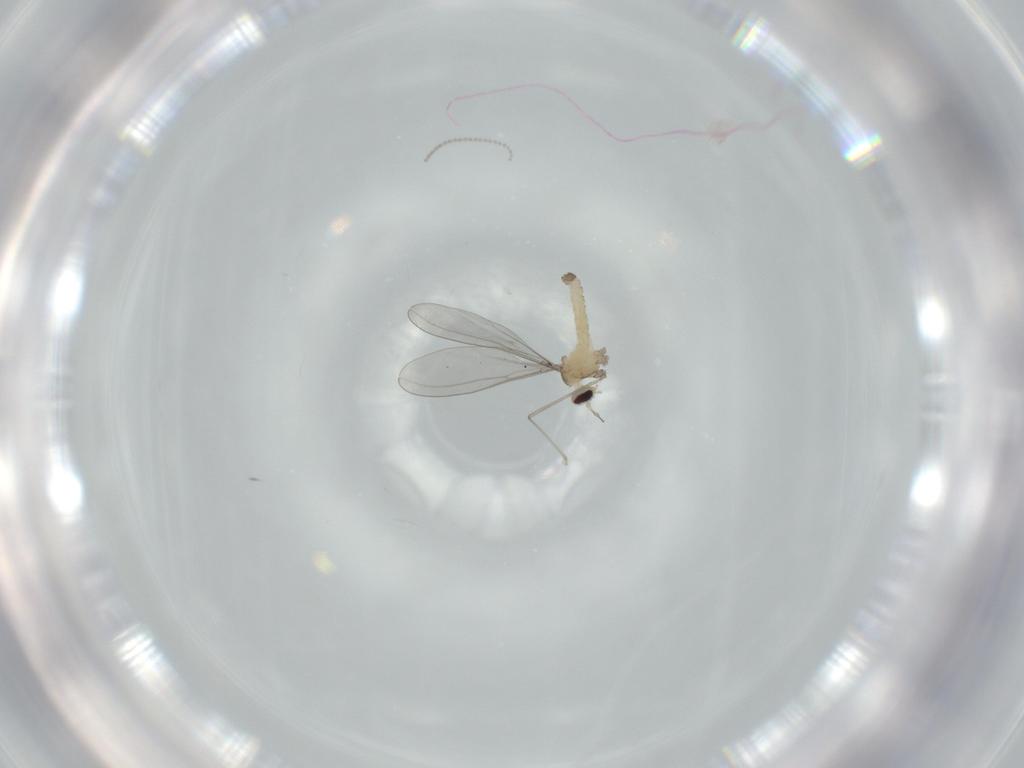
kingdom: Animalia
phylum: Arthropoda
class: Insecta
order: Diptera
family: Cecidomyiidae
